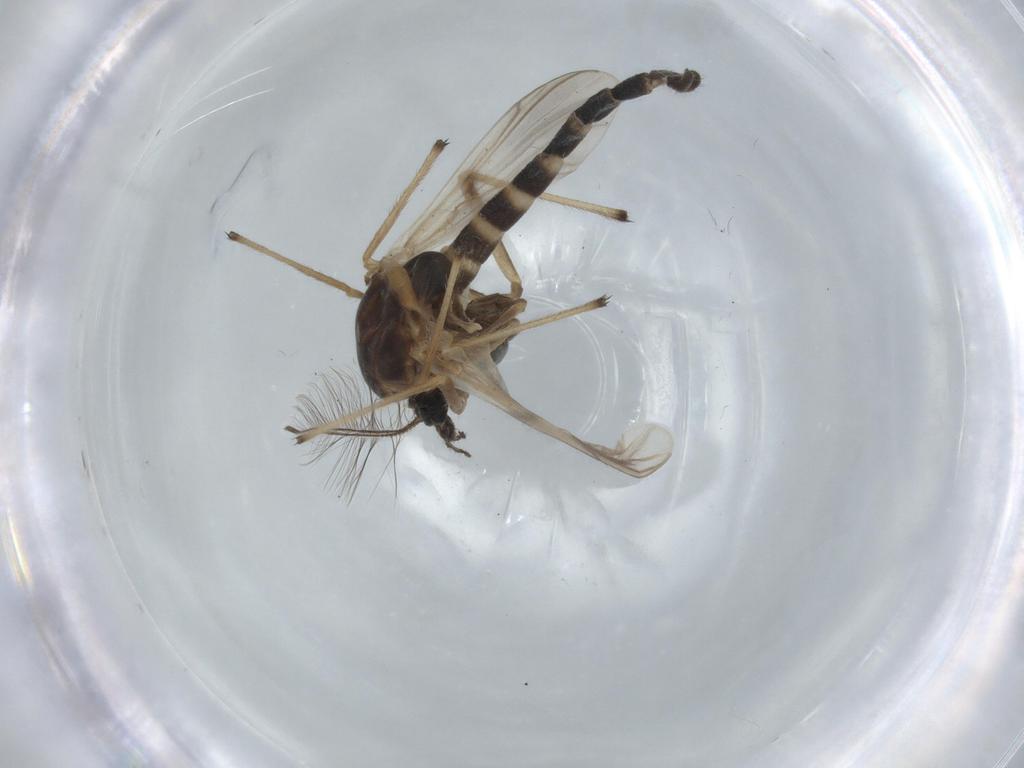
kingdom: Animalia
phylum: Arthropoda
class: Insecta
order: Diptera
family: Chironomidae
